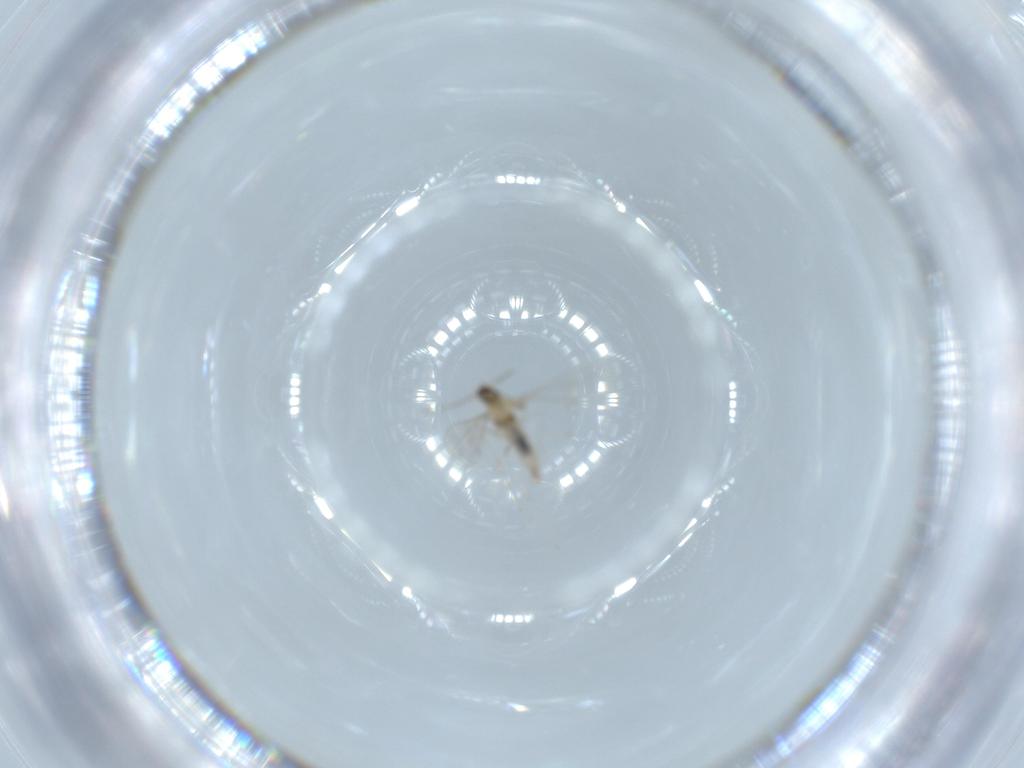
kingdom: Animalia
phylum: Arthropoda
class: Insecta
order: Diptera
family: Cecidomyiidae
